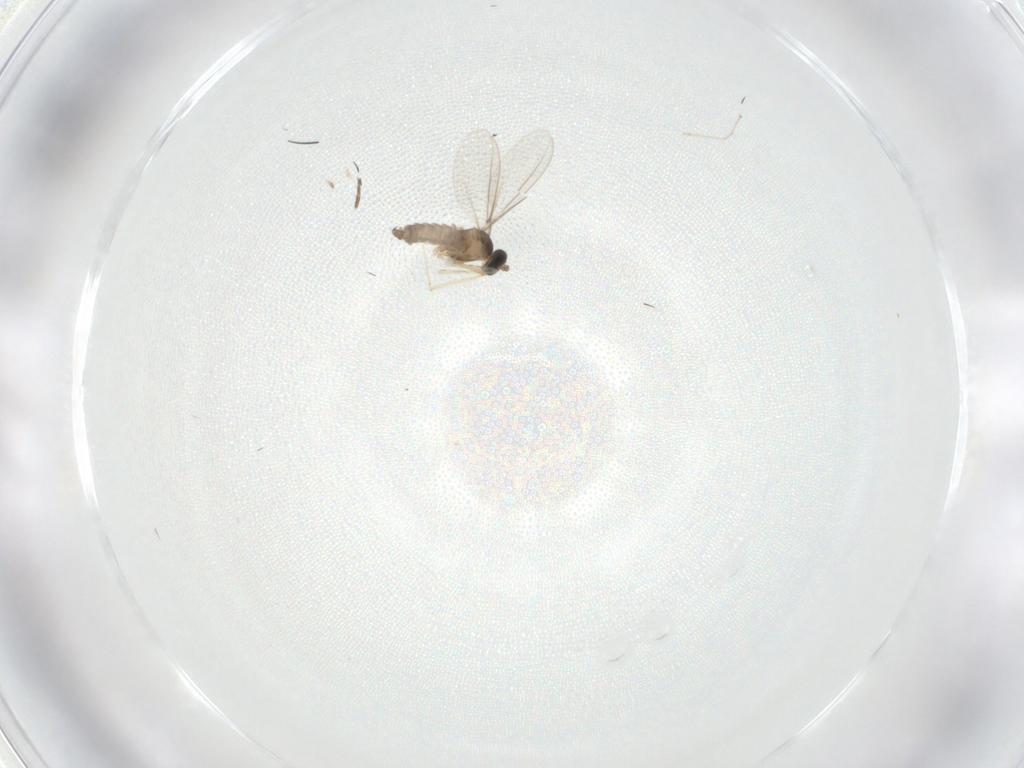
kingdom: Animalia
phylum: Arthropoda
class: Insecta
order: Diptera
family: Cecidomyiidae
